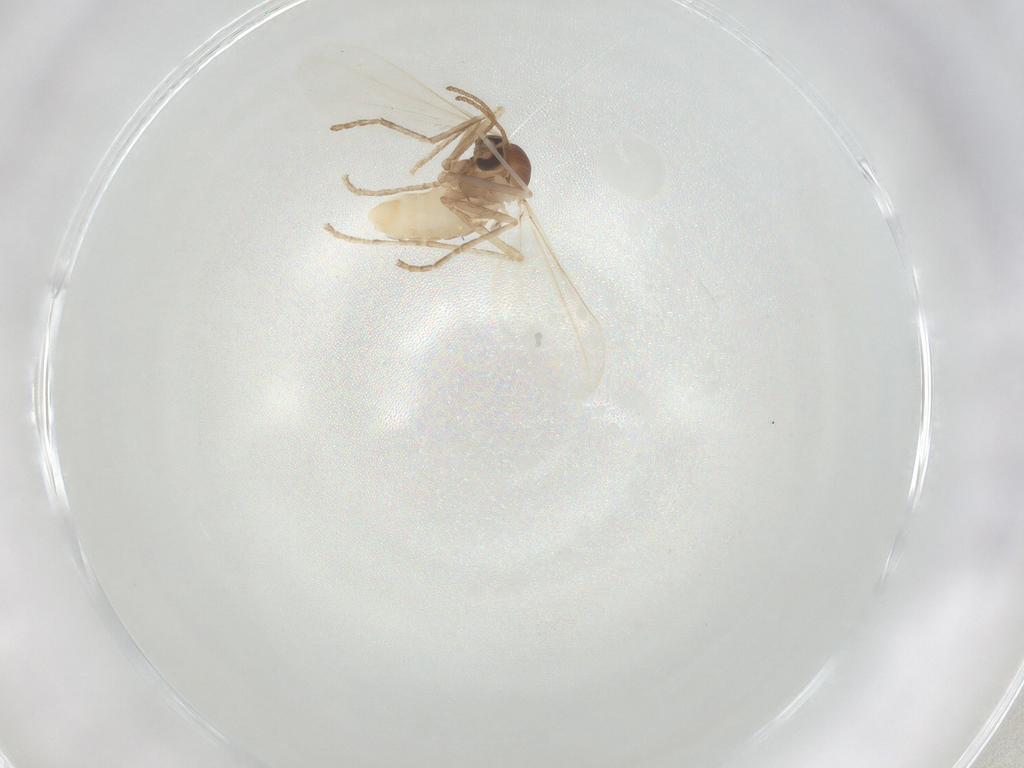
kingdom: Animalia
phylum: Arthropoda
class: Insecta
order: Diptera
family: Cecidomyiidae
